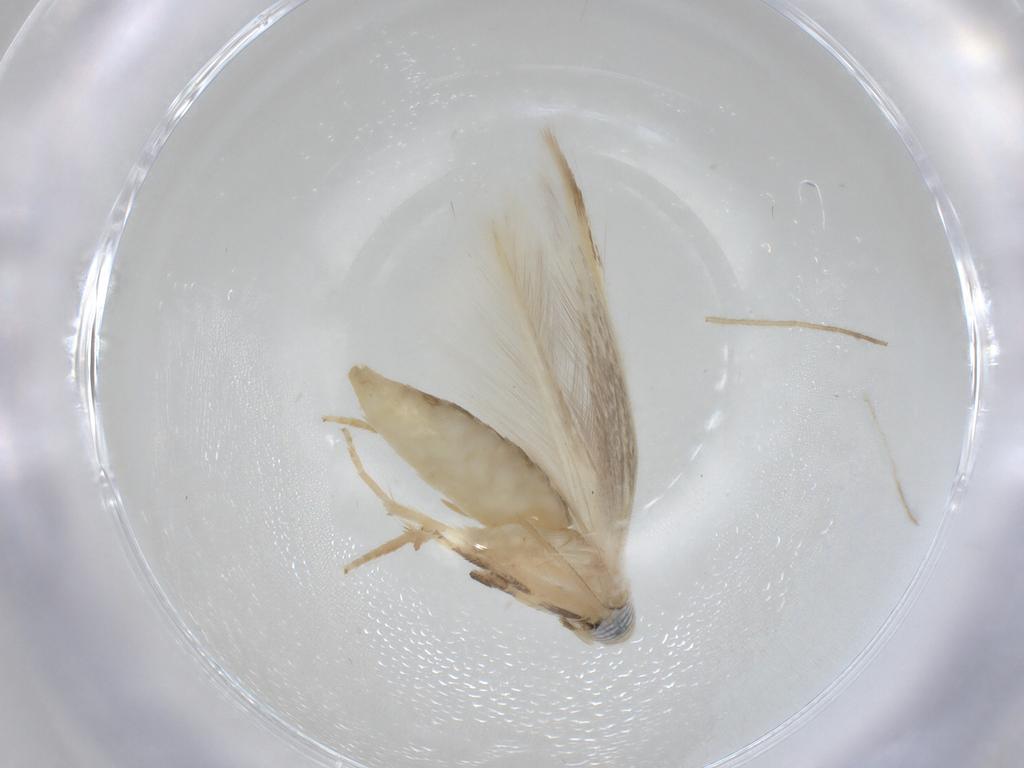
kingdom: Animalia
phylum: Arthropoda
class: Insecta
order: Lepidoptera
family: Opostegidae
